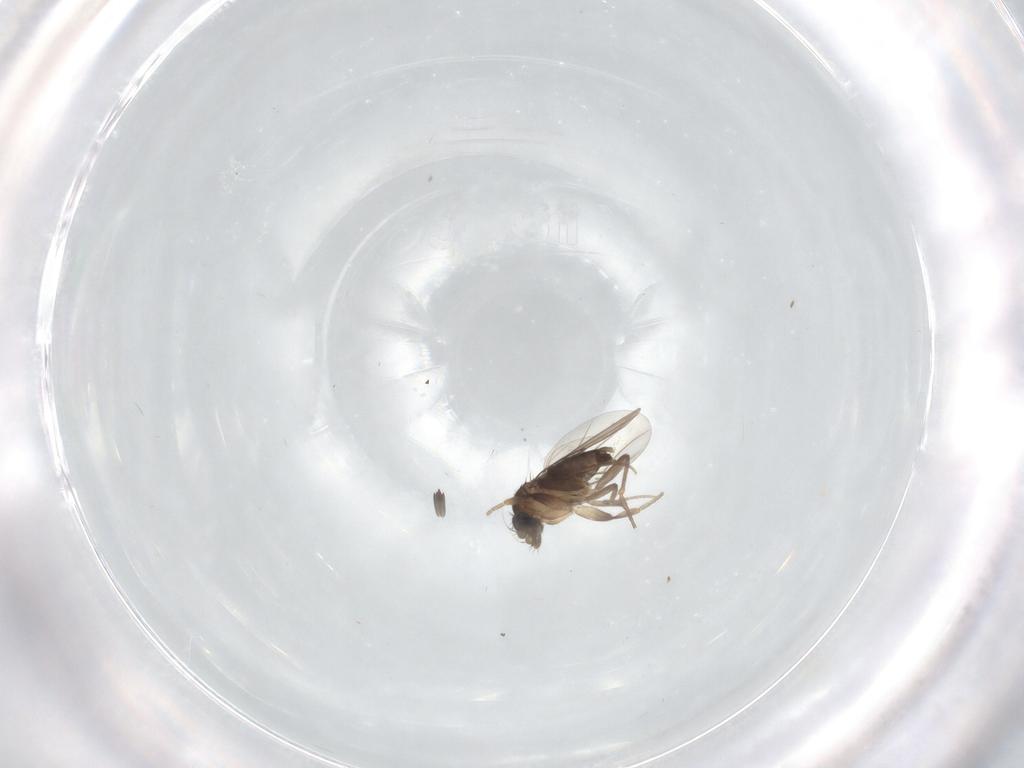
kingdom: Animalia
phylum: Arthropoda
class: Insecta
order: Diptera
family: Phoridae
